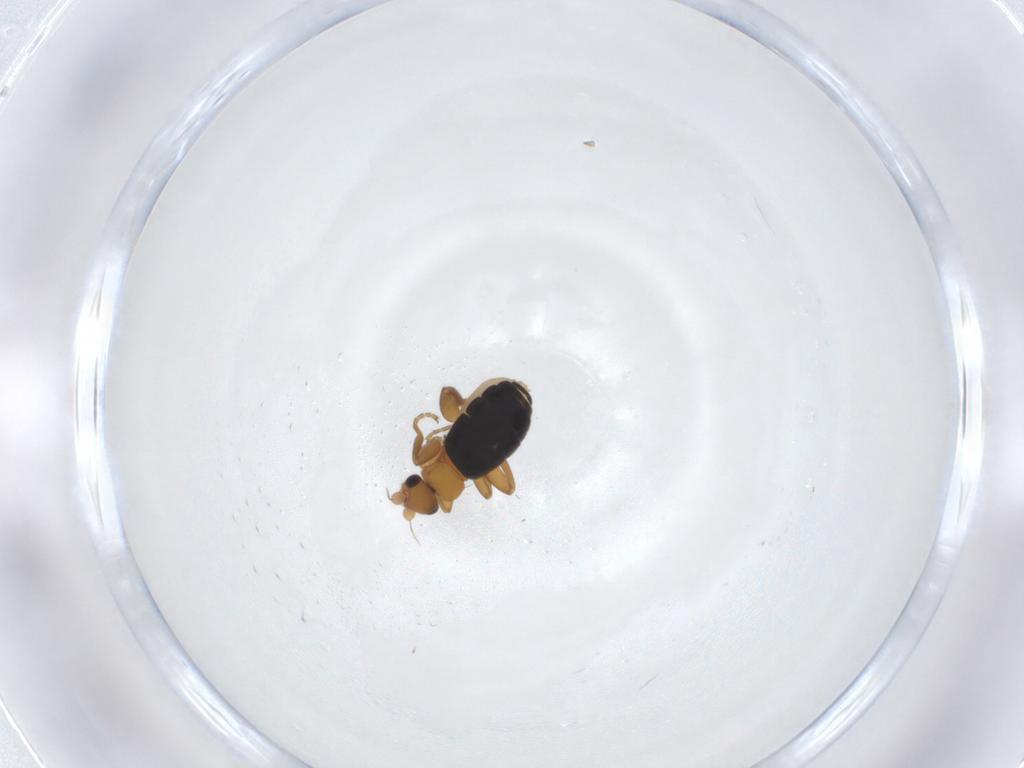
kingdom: Animalia
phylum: Arthropoda
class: Insecta
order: Diptera
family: Phoridae
